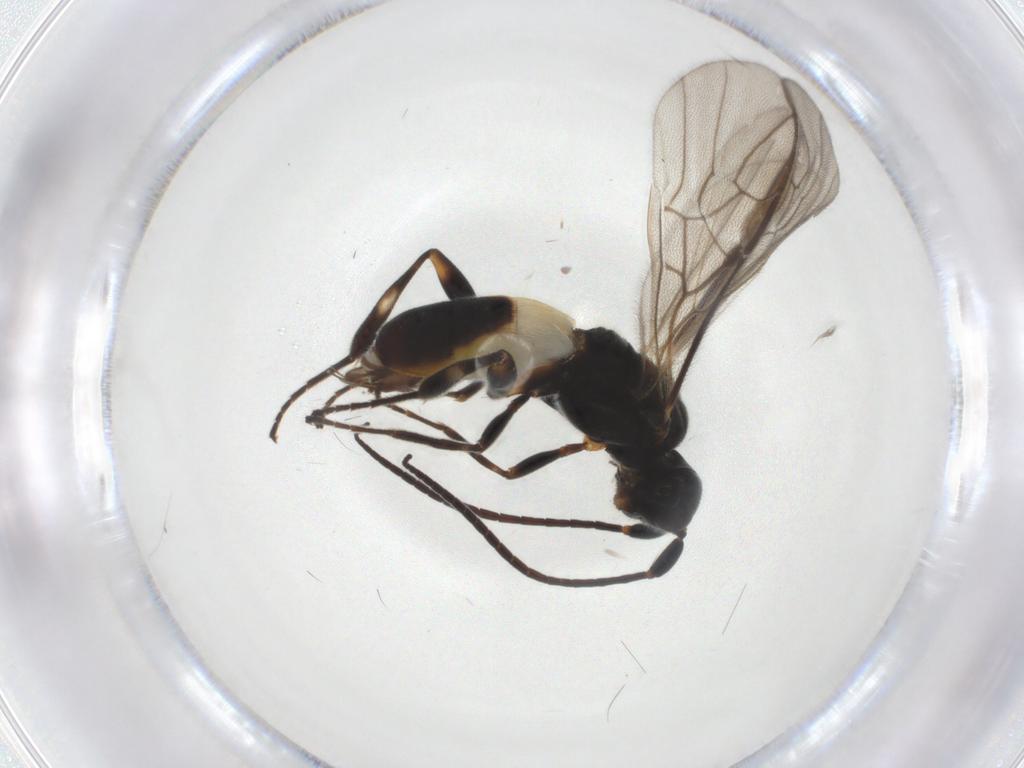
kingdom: Animalia
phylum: Arthropoda
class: Insecta
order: Hymenoptera
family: Braconidae
